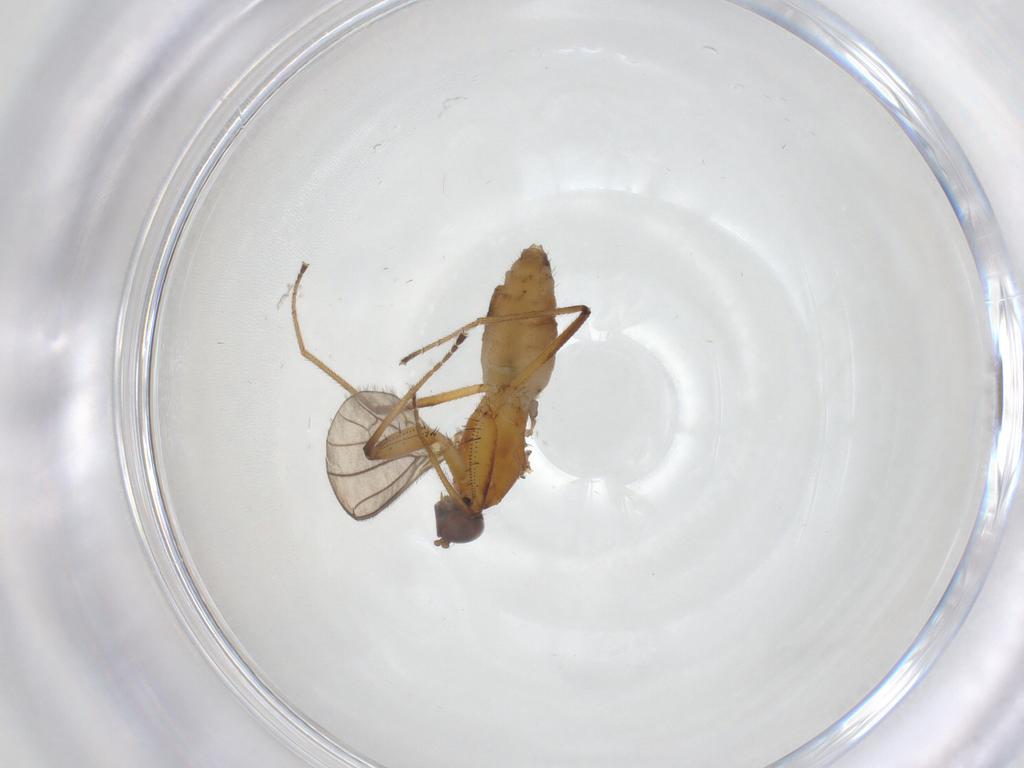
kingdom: Animalia
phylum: Arthropoda
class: Insecta
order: Diptera
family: Empididae
